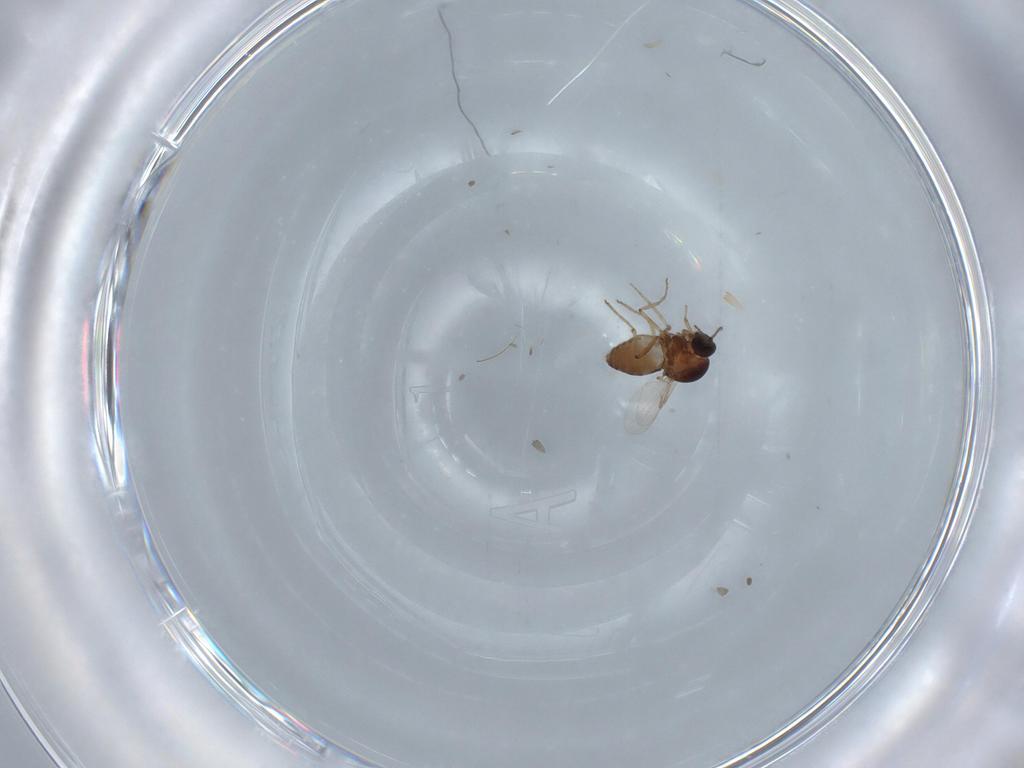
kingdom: Animalia
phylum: Arthropoda
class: Insecta
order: Diptera
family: Ceratopogonidae
